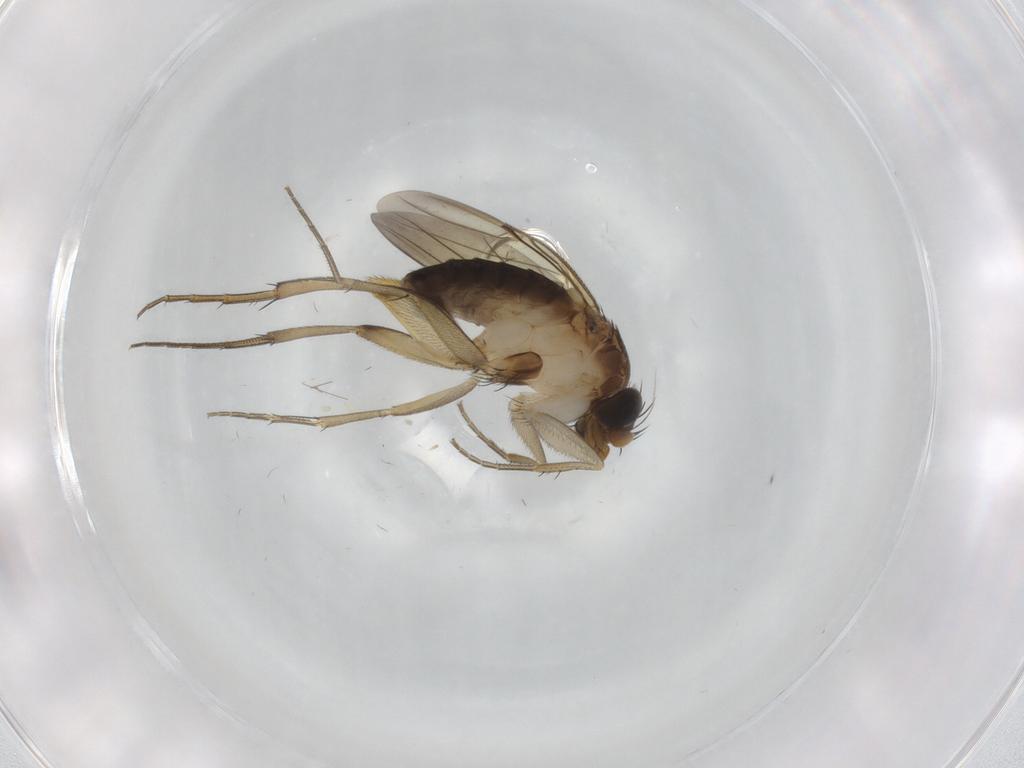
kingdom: Animalia
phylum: Arthropoda
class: Insecta
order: Diptera
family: Phoridae
